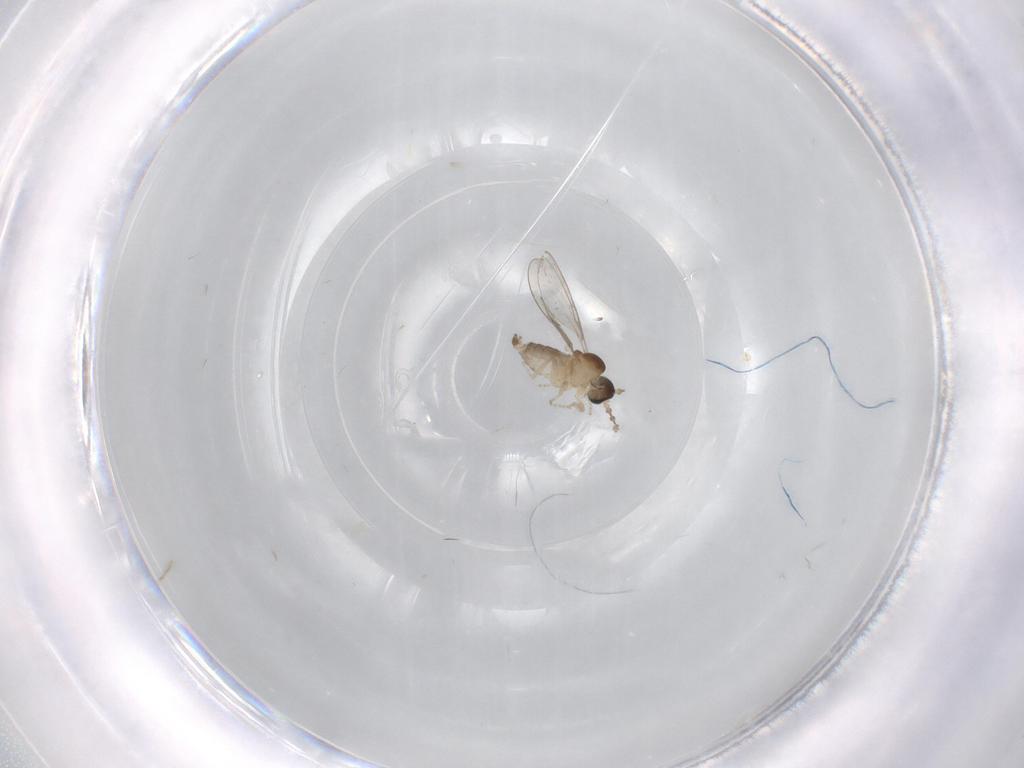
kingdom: Animalia
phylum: Arthropoda
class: Insecta
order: Diptera
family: Cecidomyiidae
